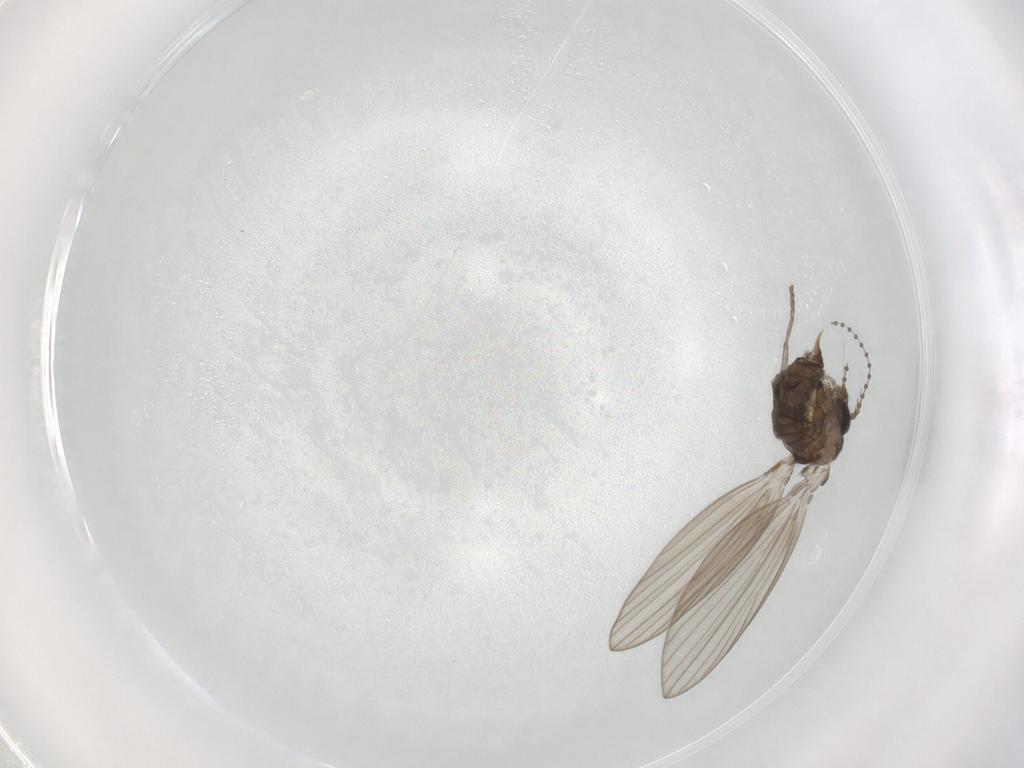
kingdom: Animalia
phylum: Arthropoda
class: Insecta
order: Diptera
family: Psychodidae
